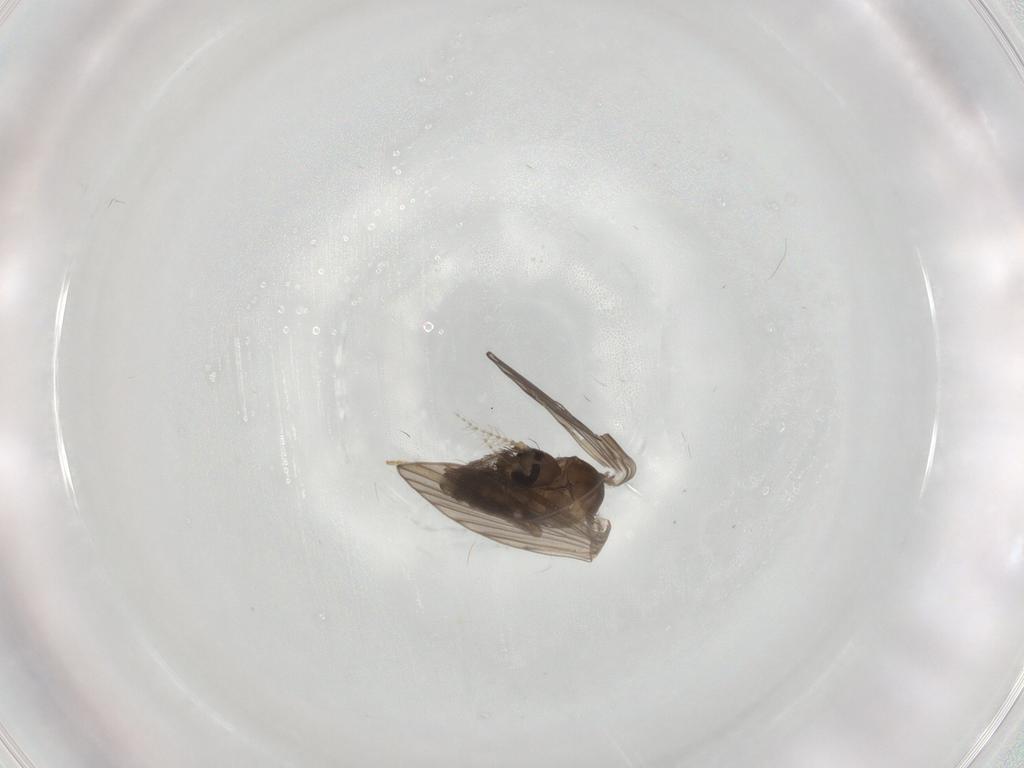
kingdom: Animalia
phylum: Arthropoda
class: Insecta
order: Diptera
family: Psychodidae
